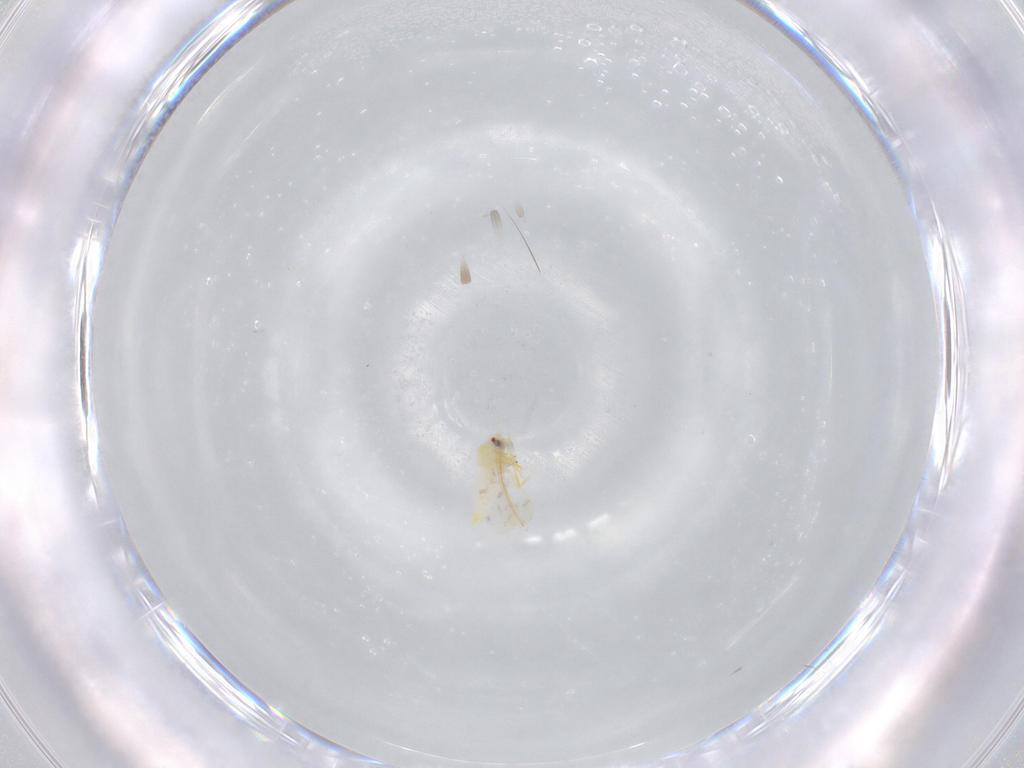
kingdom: Animalia
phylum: Arthropoda
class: Insecta
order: Hemiptera
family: Aleyrodidae
